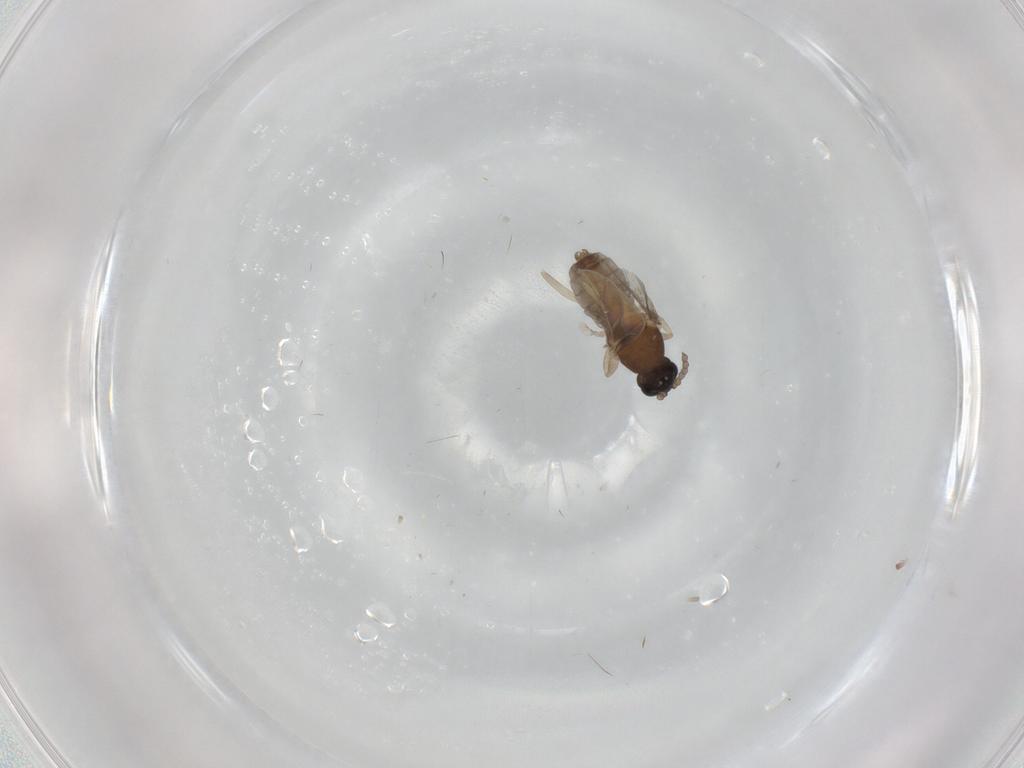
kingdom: Animalia
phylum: Arthropoda
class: Insecta
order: Diptera
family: Cecidomyiidae
